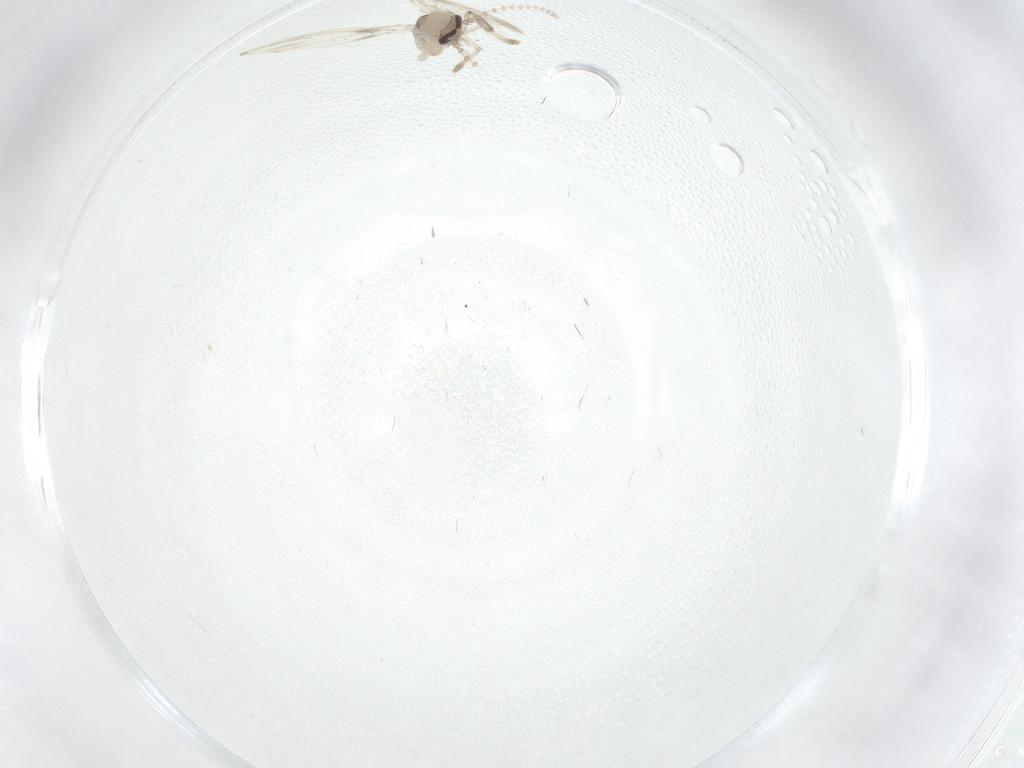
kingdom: Animalia
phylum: Arthropoda
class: Insecta
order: Diptera
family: Psychodidae
